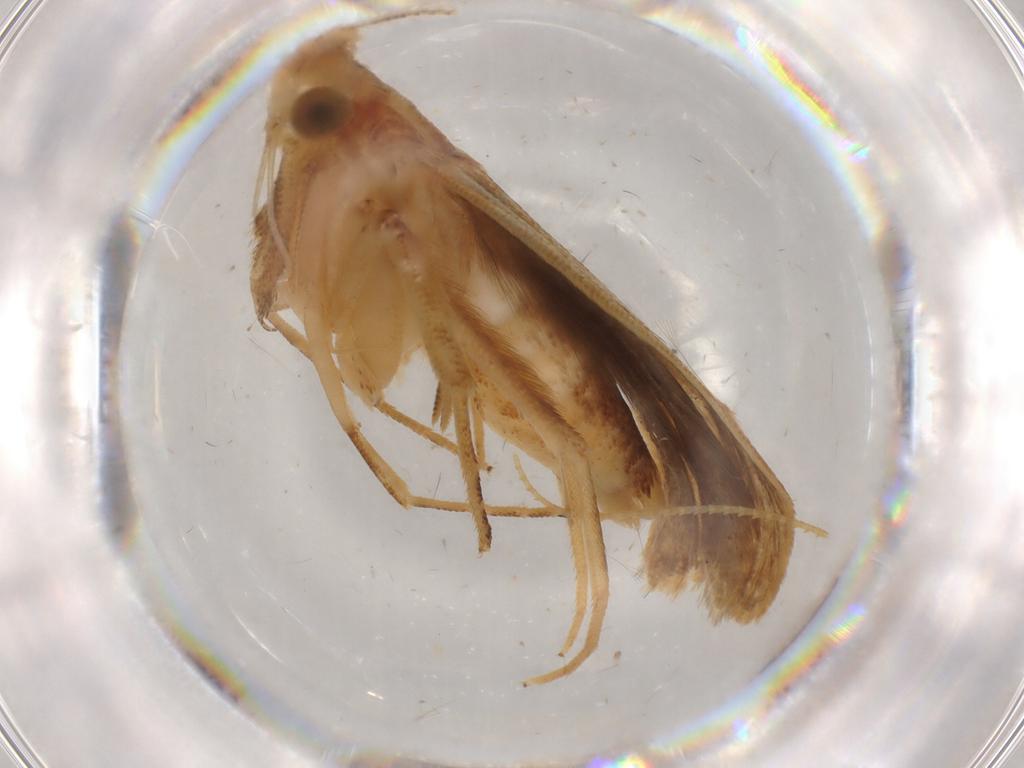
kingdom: Animalia
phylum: Arthropoda
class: Insecta
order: Lepidoptera
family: Gelechiidae
